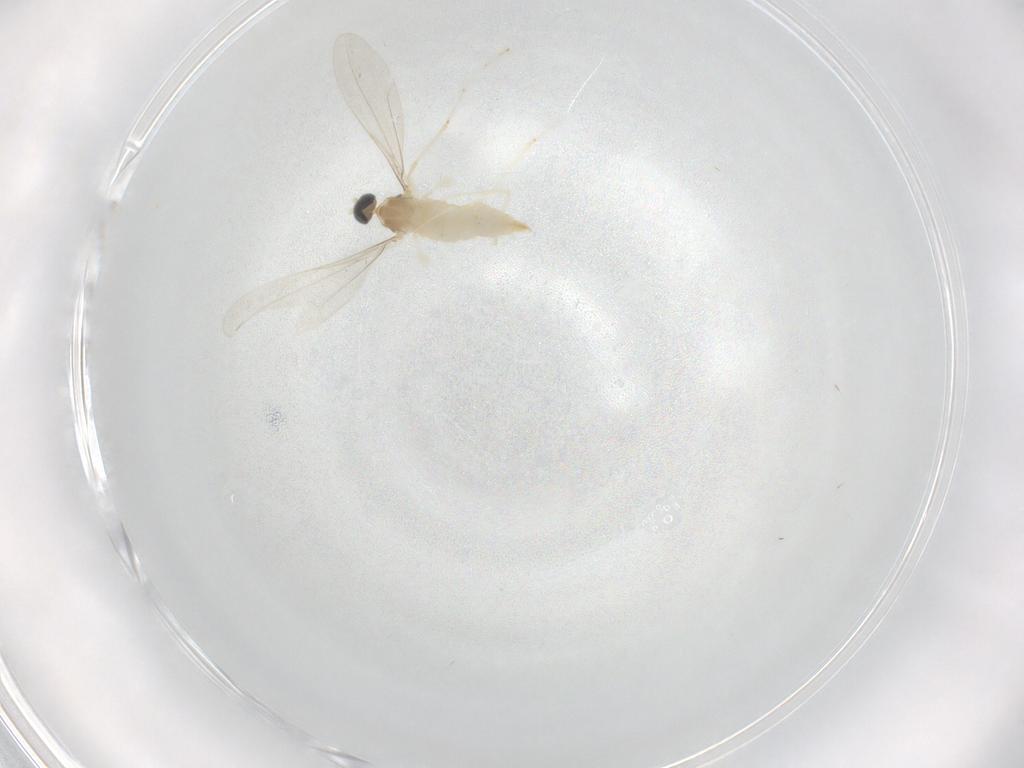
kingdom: Animalia
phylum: Arthropoda
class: Insecta
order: Diptera
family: Cecidomyiidae
